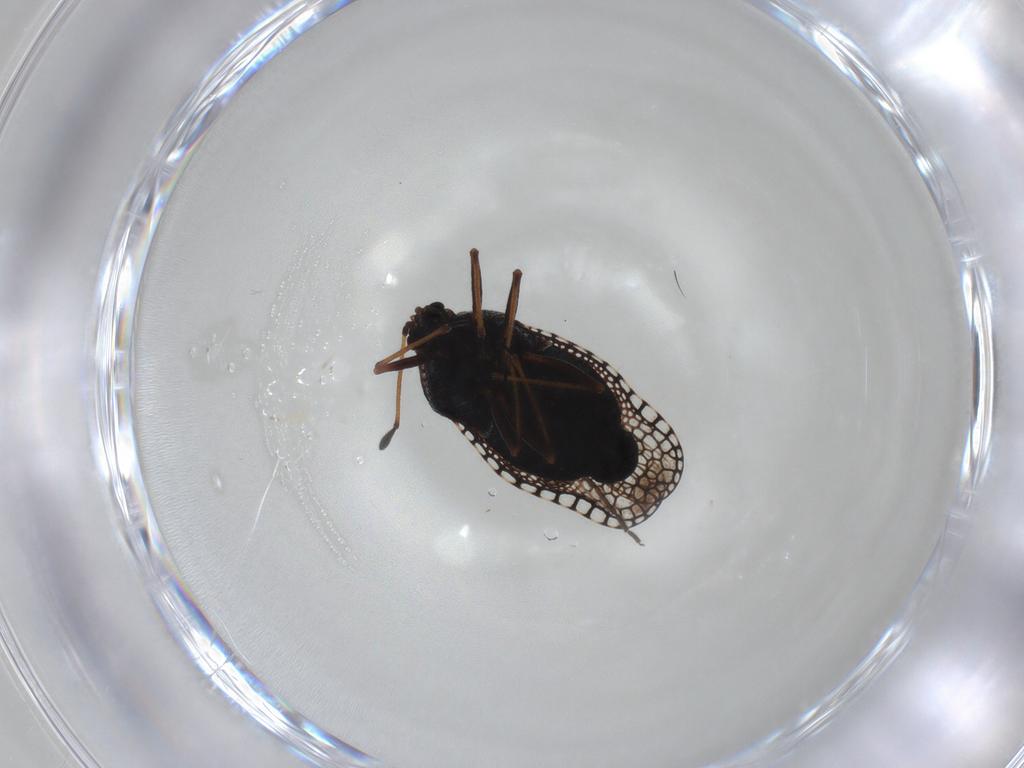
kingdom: Animalia
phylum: Arthropoda
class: Insecta
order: Hemiptera
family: Tingidae
